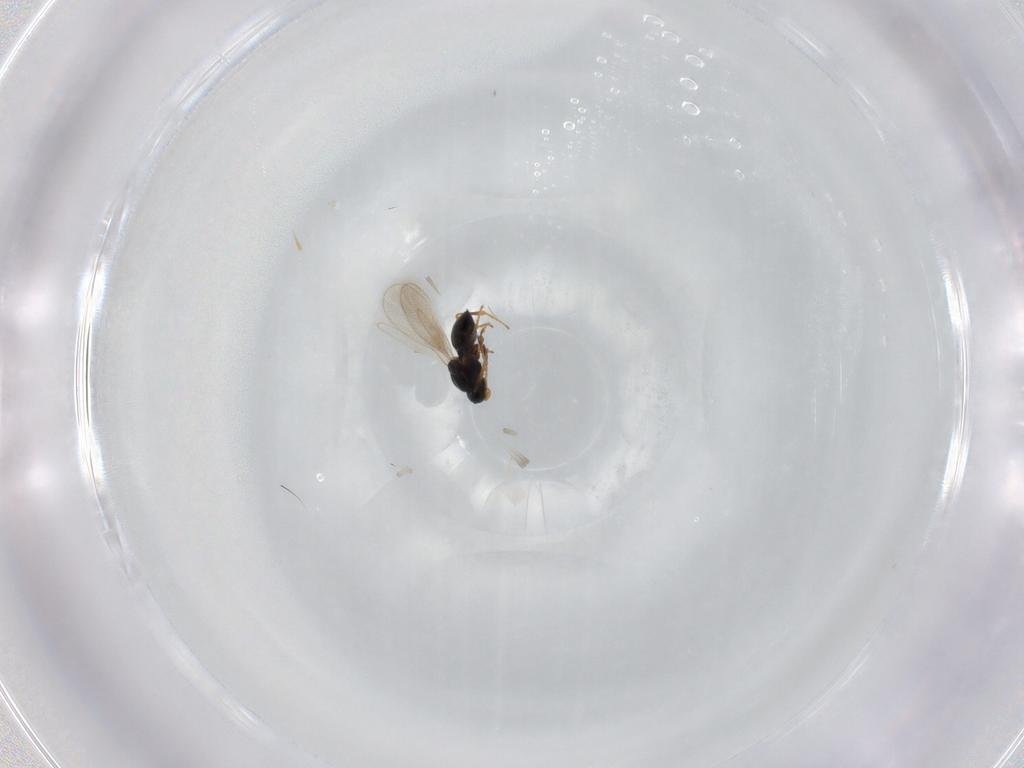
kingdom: Animalia
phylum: Arthropoda
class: Insecta
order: Hymenoptera
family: Platygastridae
